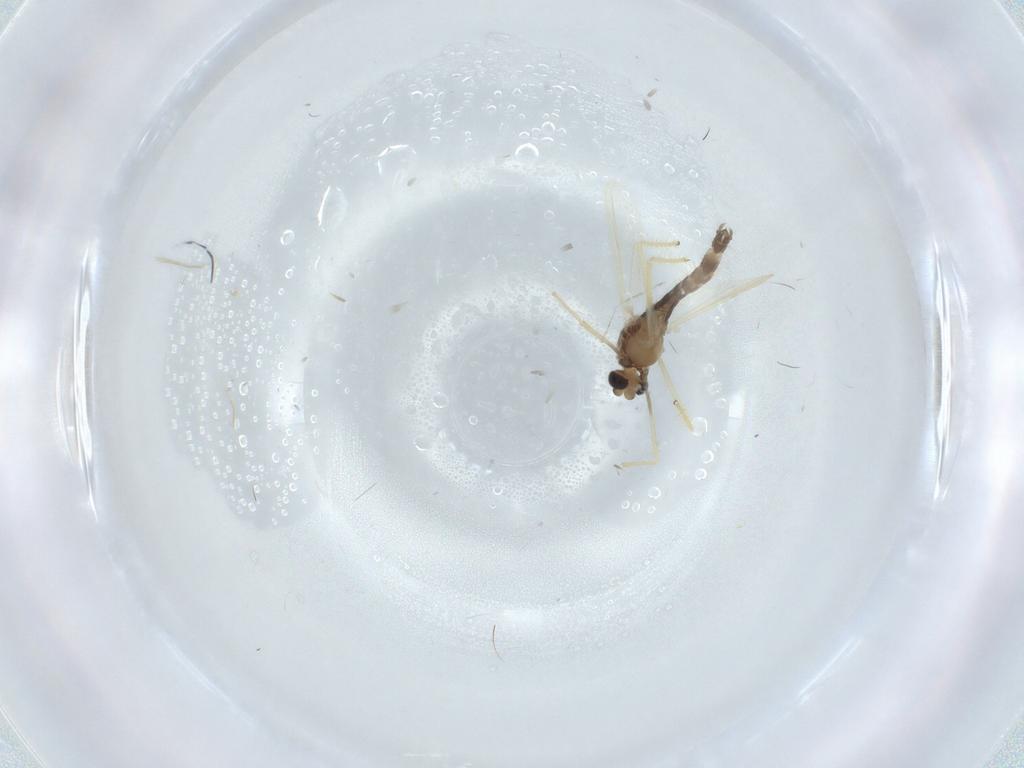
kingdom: Animalia
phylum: Arthropoda
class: Insecta
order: Diptera
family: Chironomidae
